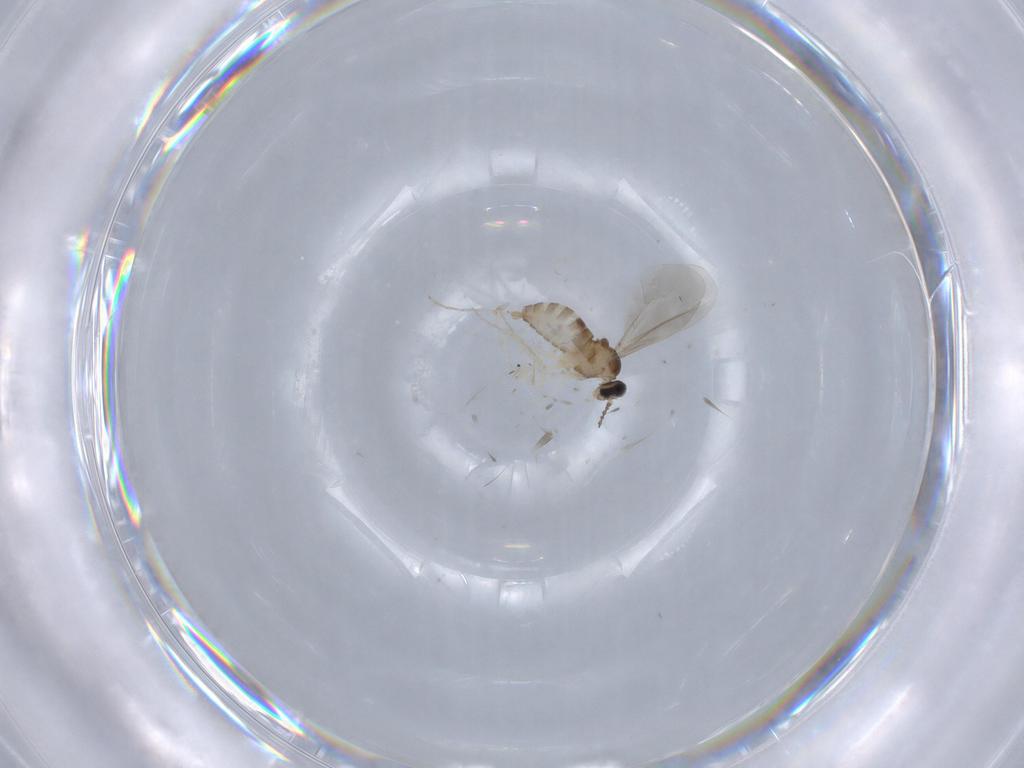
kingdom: Animalia
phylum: Arthropoda
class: Insecta
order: Diptera
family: Cecidomyiidae
